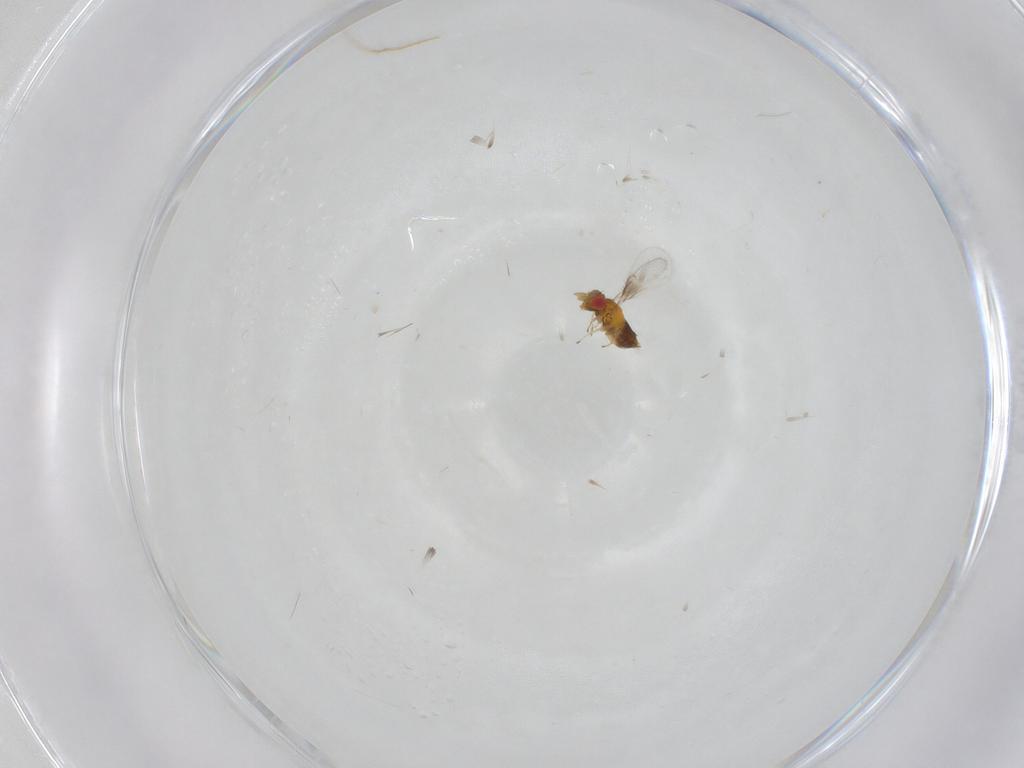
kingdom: Animalia
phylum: Arthropoda
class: Insecta
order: Hymenoptera
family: Trichogrammatidae
